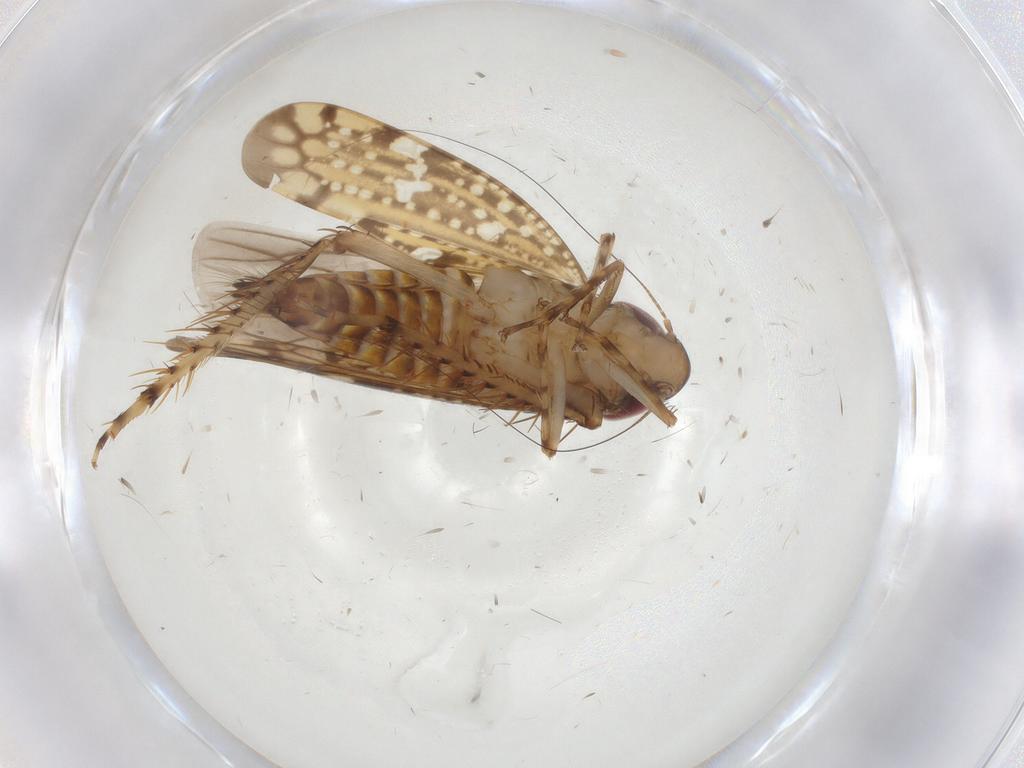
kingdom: Animalia
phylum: Arthropoda
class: Insecta
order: Hemiptera
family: Cicadellidae
